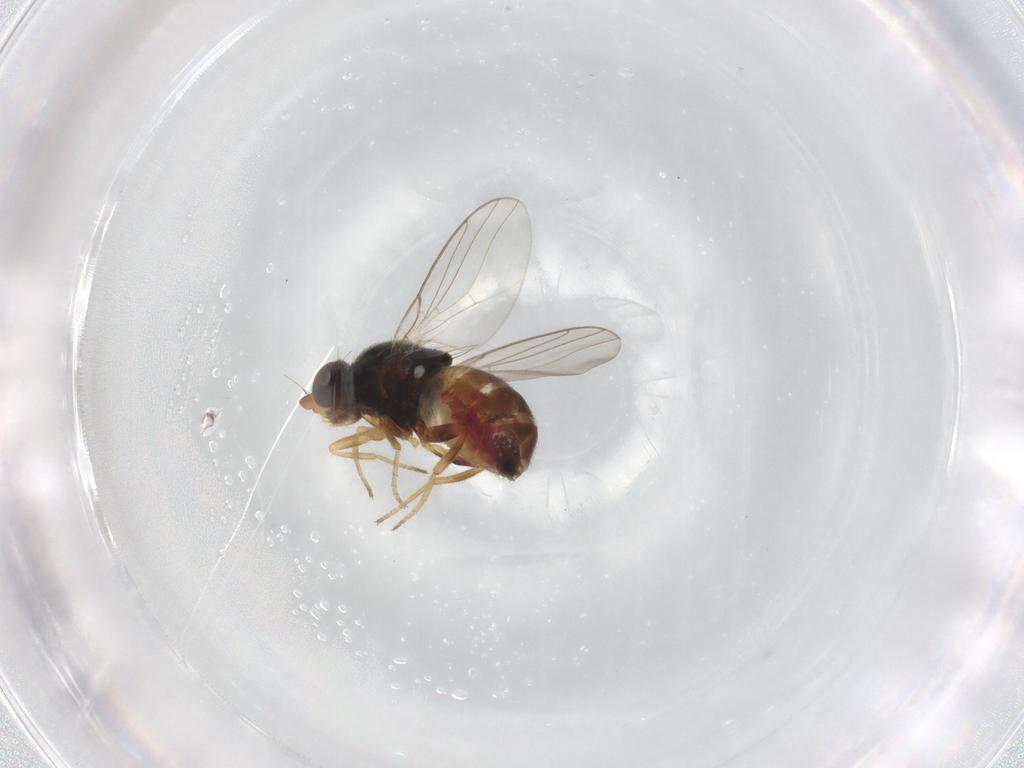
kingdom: Animalia
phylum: Arthropoda
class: Insecta
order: Diptera
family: Chloropidae
